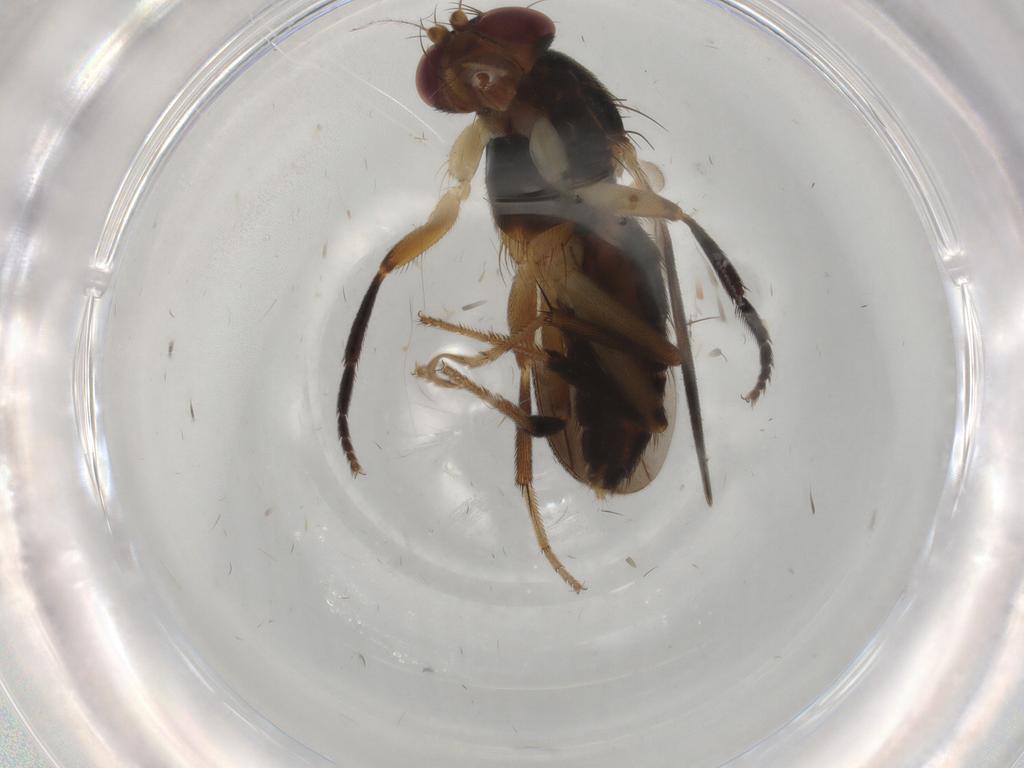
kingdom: Animalia
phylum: Arthropoda
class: Insecta
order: Diptera
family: Clusiidae
